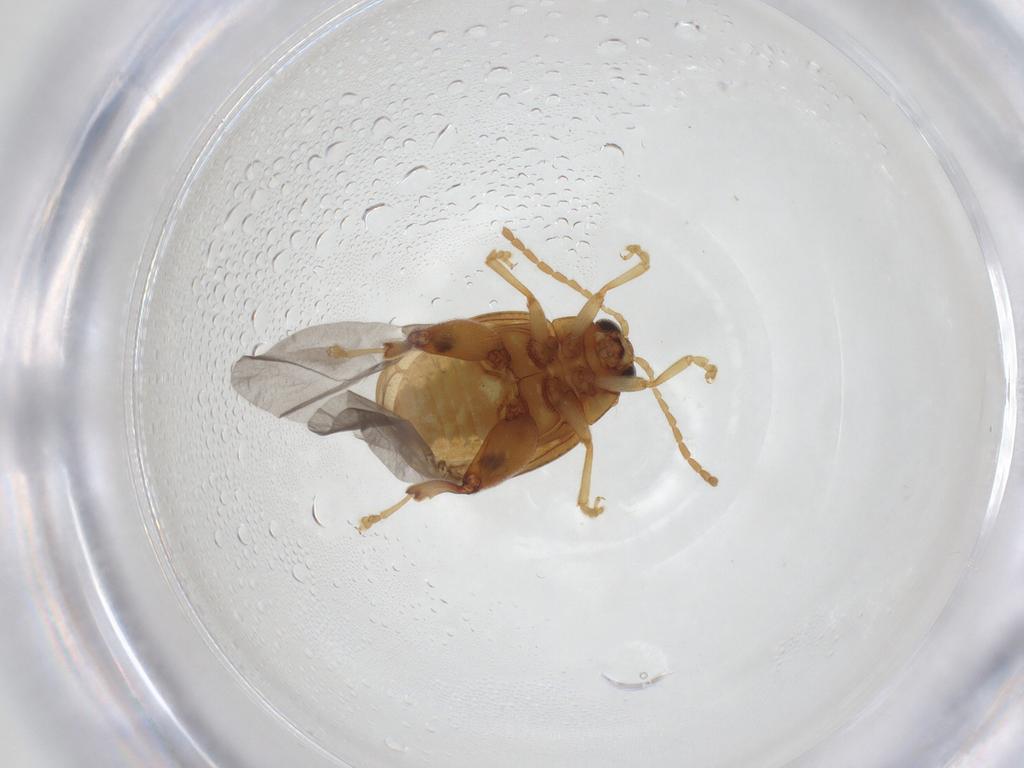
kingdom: Animalia
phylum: Arthropoda
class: Insecta
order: Coleoptera
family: Chrysomelidae
